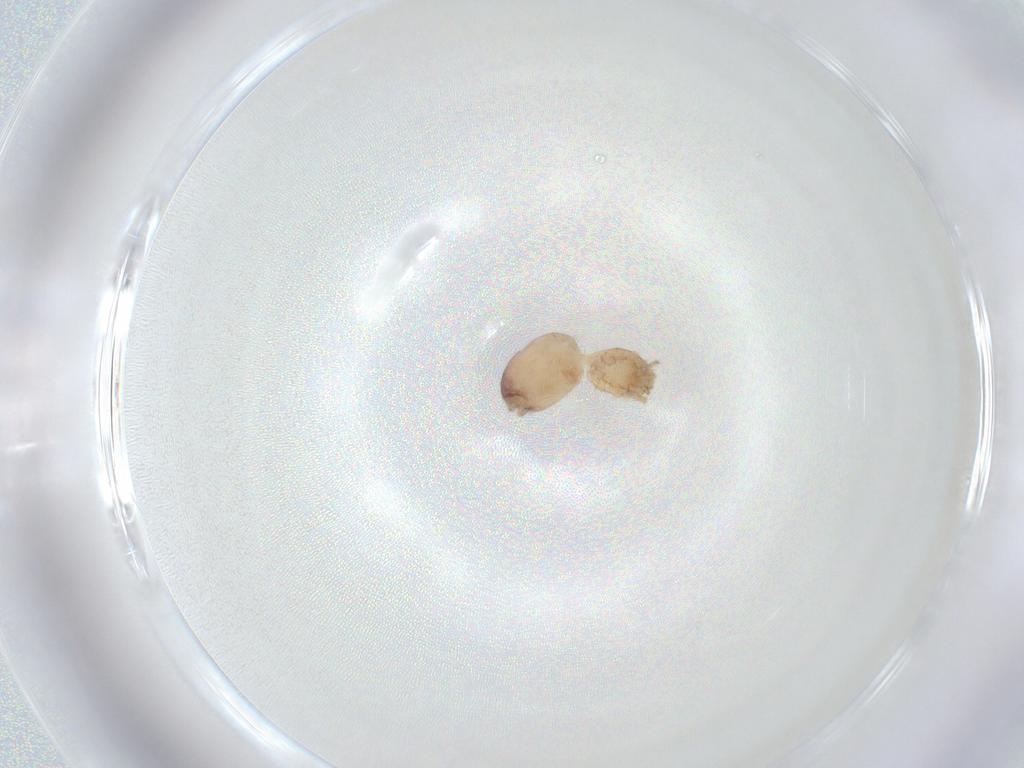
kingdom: Animalia
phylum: Arthropoda
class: Arachnida
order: Araneae
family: Dictynidae
